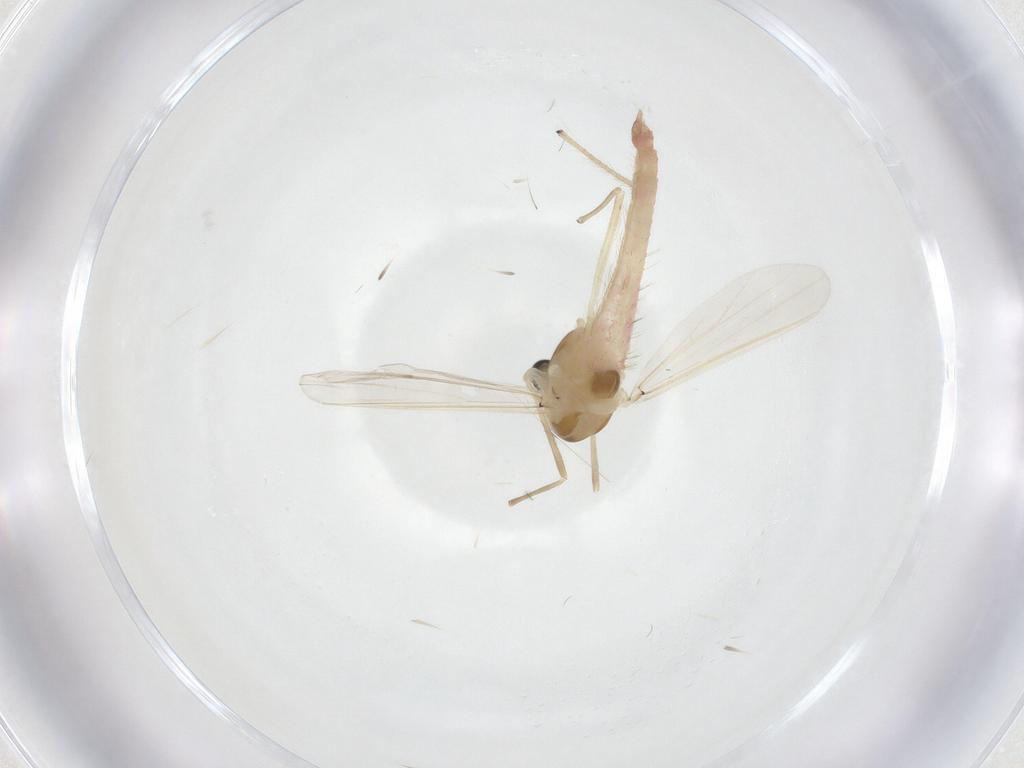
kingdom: Animalia
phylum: Arthropoda
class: Insecta
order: Diptera
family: Chironomidae
